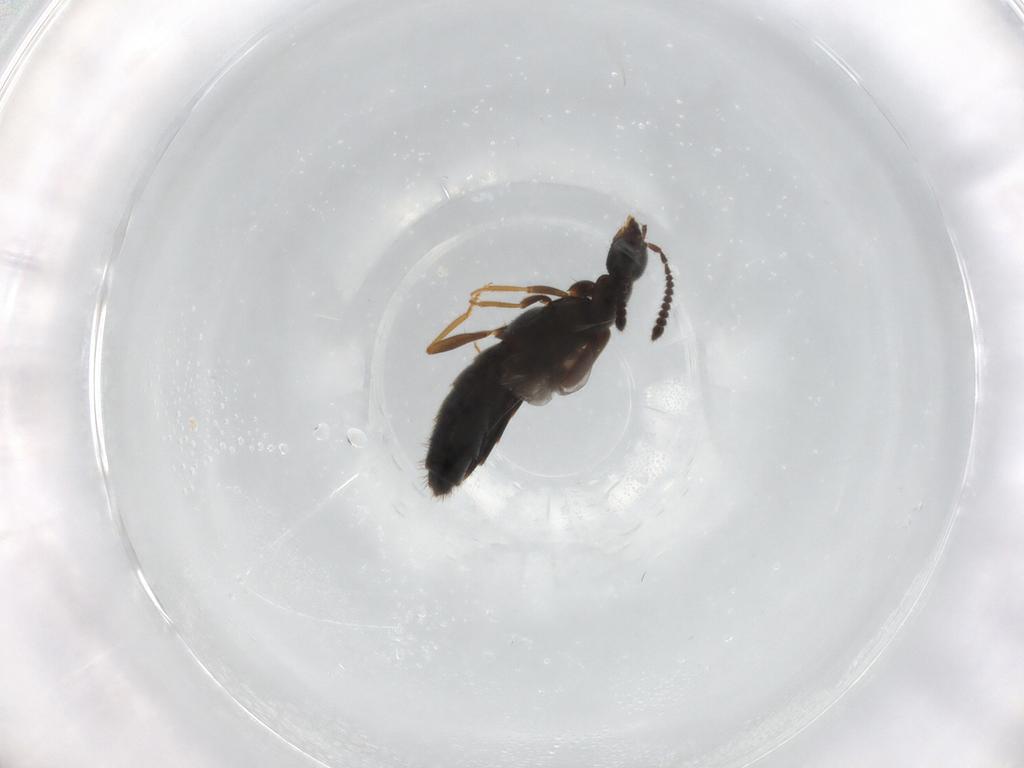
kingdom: Animalia
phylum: Arthropoda
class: Insecta
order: Coleoptera
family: Staphylinidae
